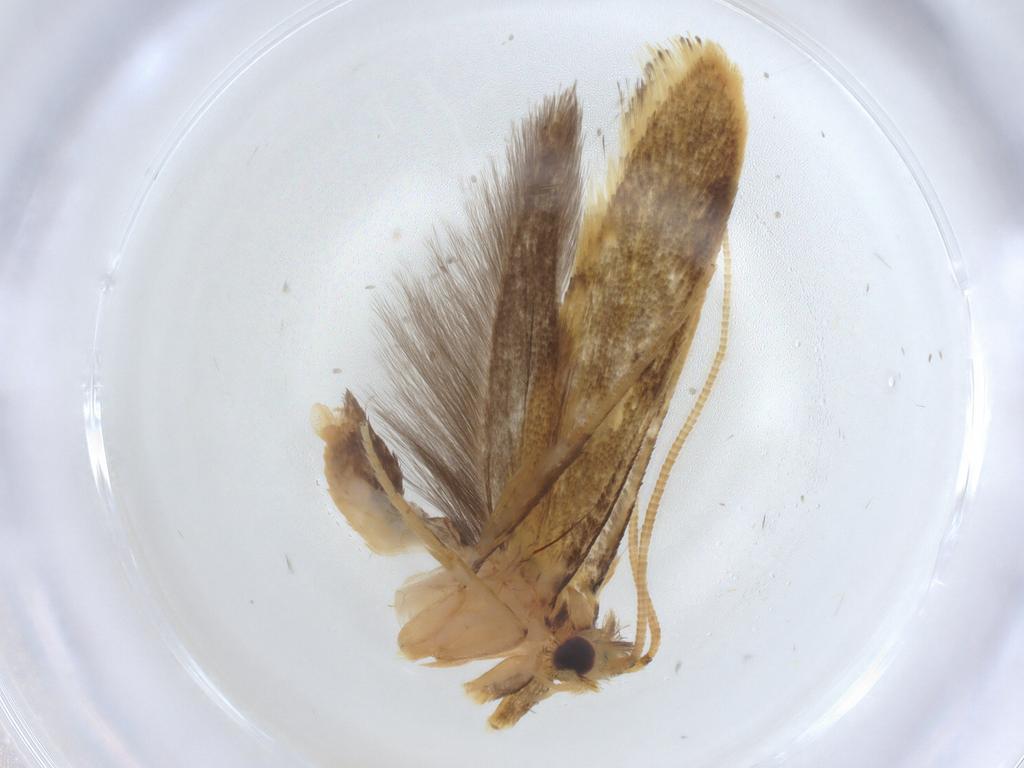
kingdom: Animalia
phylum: Arthropoda
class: Insecta
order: Lepidoptera
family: Tineidae
